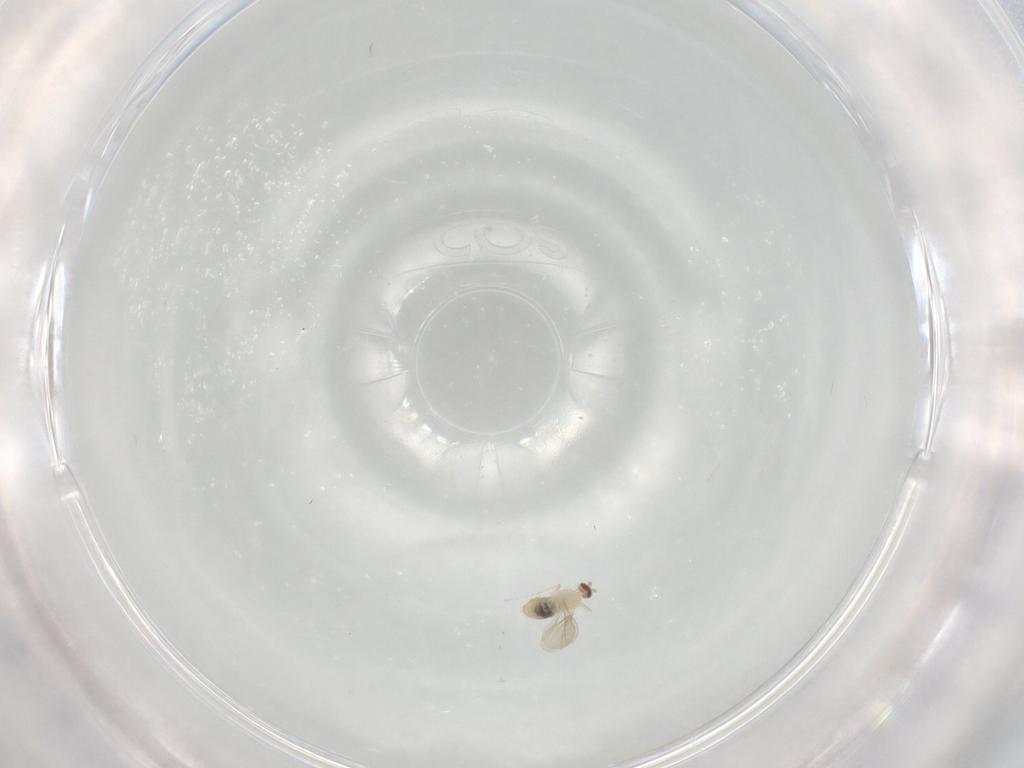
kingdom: Animalia
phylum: Arthropoda
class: Insecta
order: Diptera
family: Cecidomyiidae
